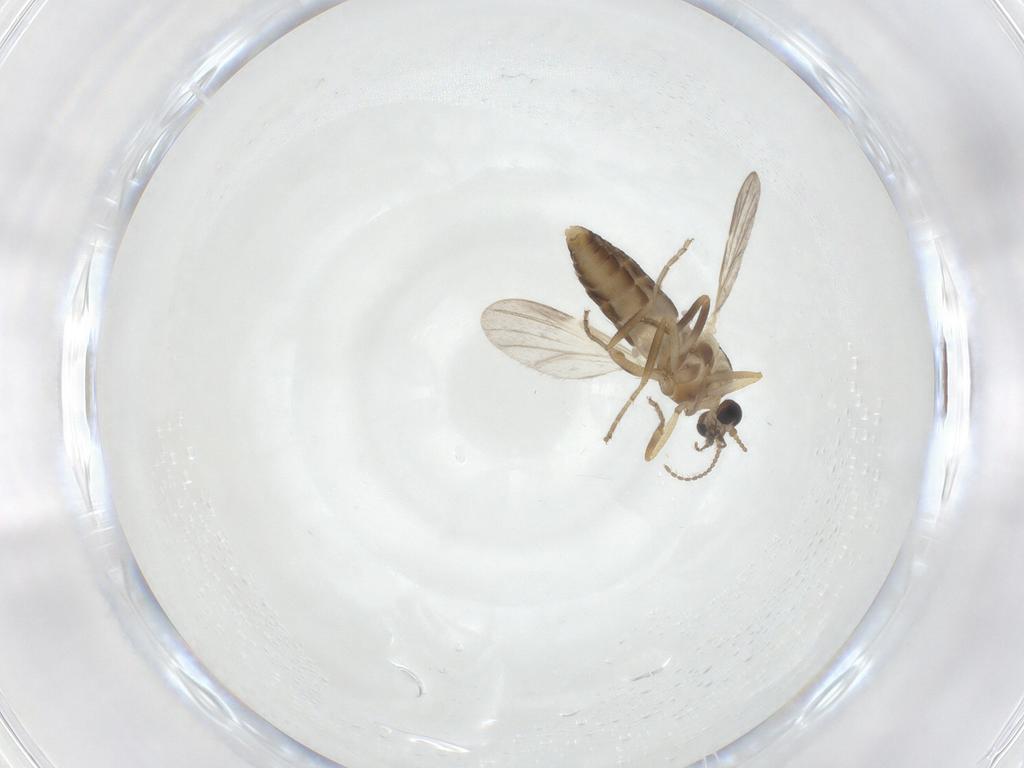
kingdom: Animalia
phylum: Arthropoda
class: Insecta
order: Diptera
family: Ceratopogonidae
